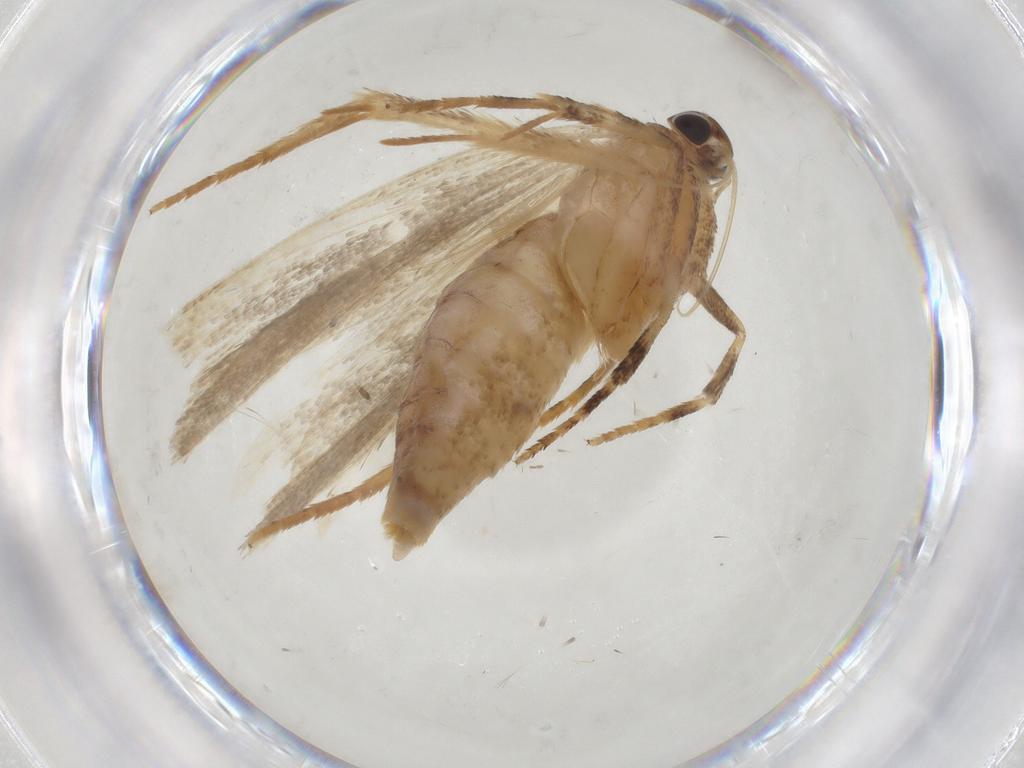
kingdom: Animalia
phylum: Arthropoda
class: Insecta
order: Lepidoptera
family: Gelechiidae
